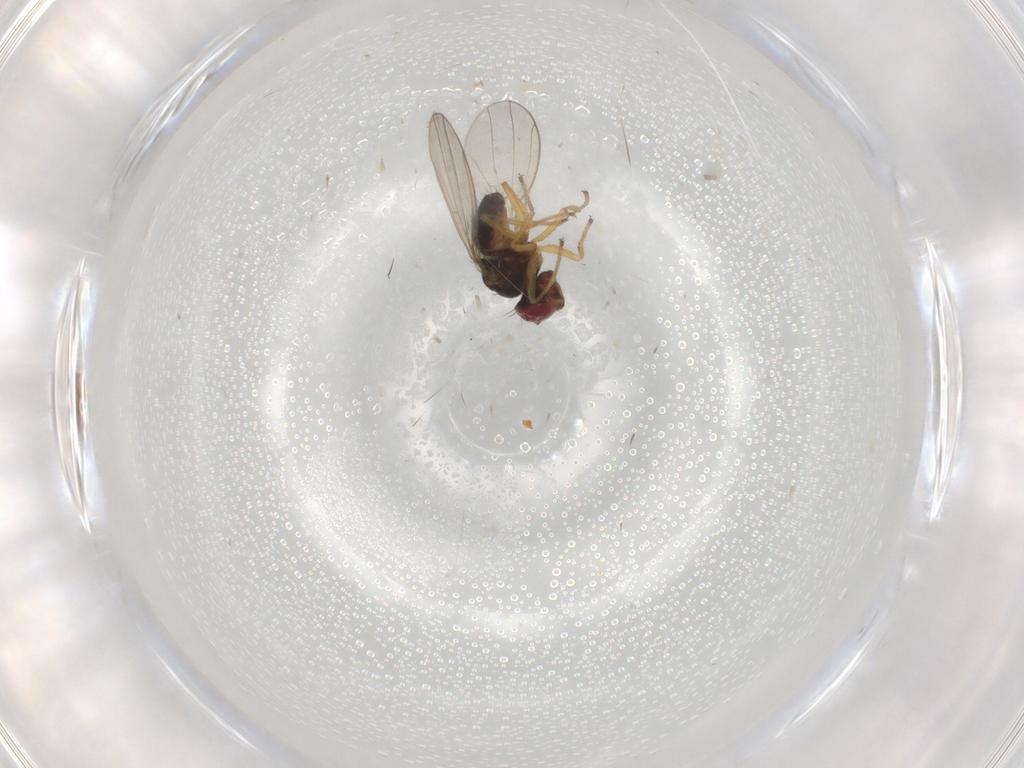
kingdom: Animalia
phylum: Arthropoda
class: Insecta
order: Diptera
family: Ephydridae
